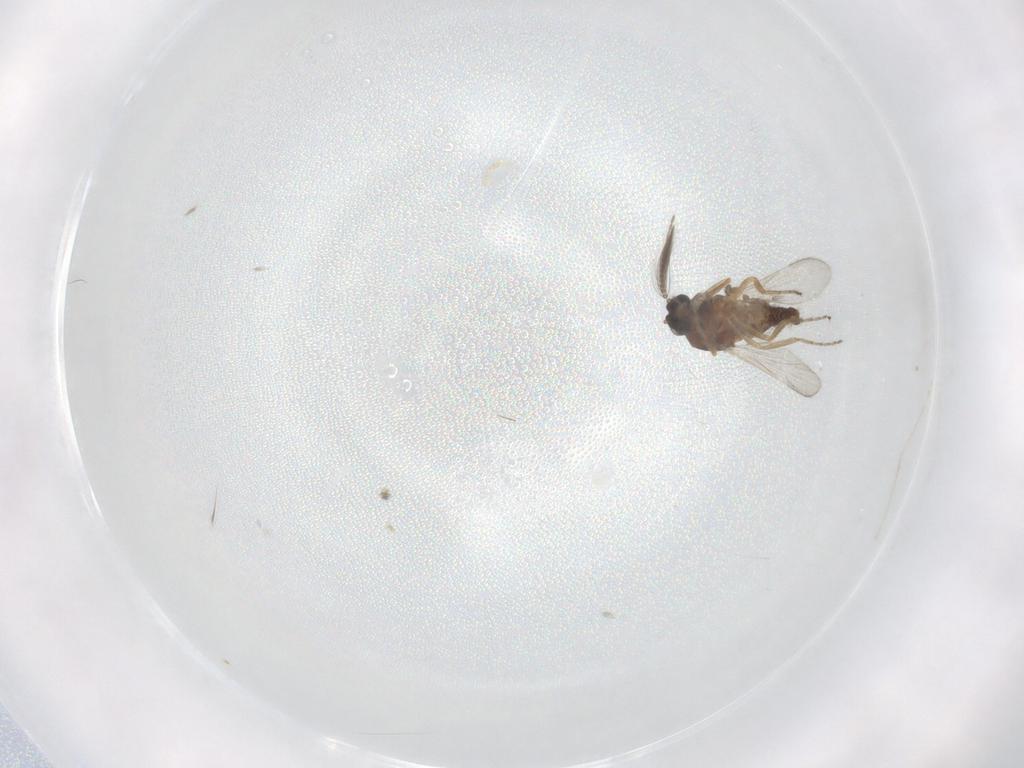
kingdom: Animalia
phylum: Arthropoda
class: Insecta
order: Diptera
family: Ceratopogonidae
